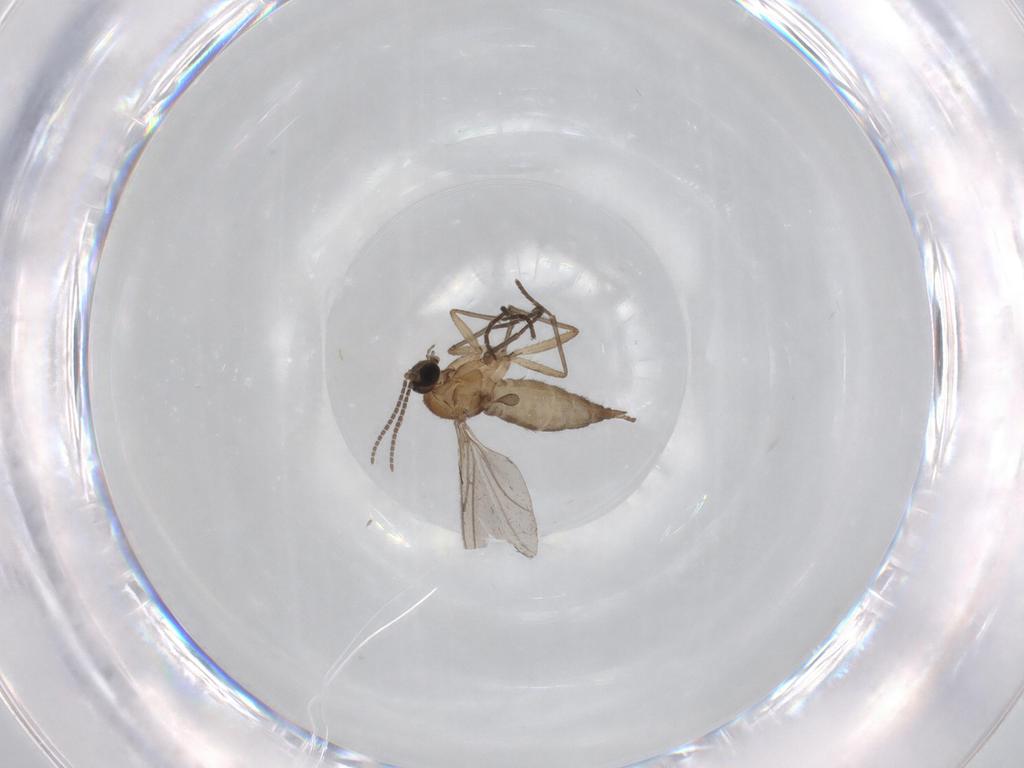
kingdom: Animalia
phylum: Arthropoda
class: Insecta
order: Diptera
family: Sciaridae
